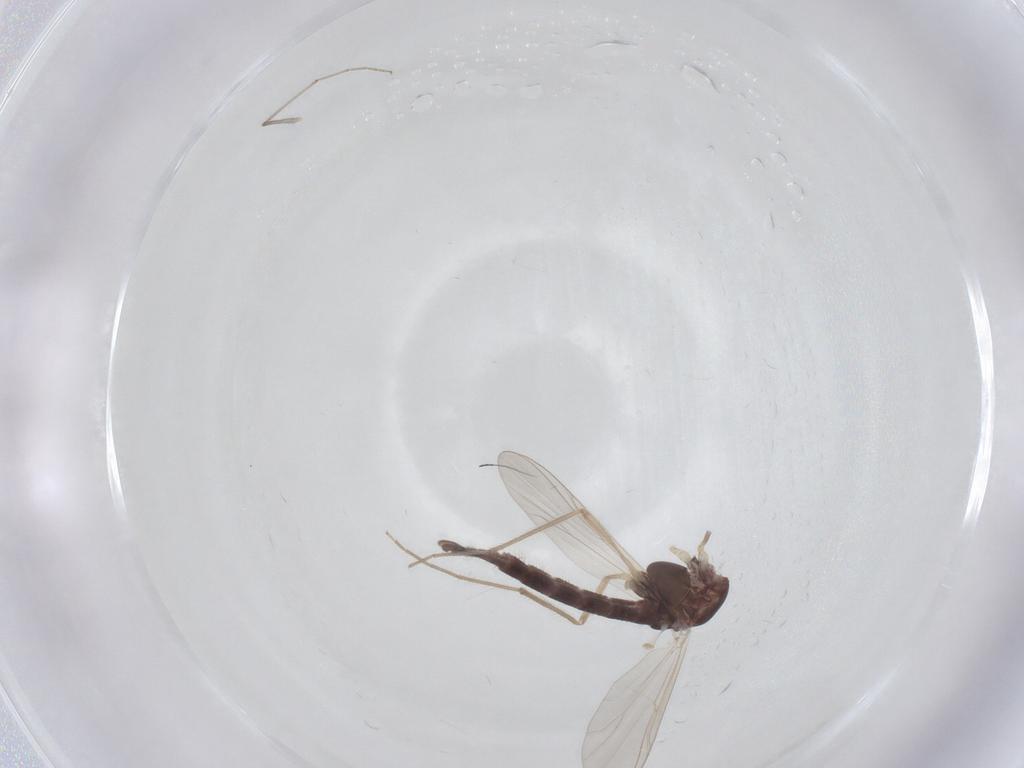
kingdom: Animalia
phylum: Arthropoda
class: Insecta
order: Diptera
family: Chironomidae
